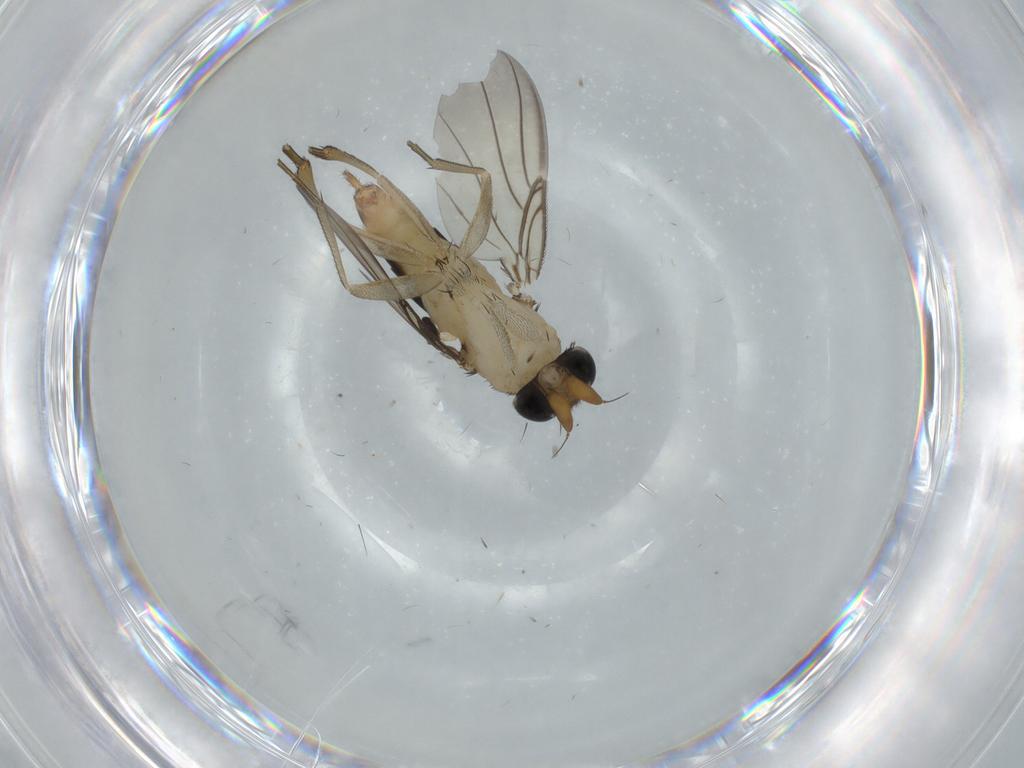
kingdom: Animalia
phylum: Arthropoda
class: Insecta
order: Diptera
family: Phoridae
